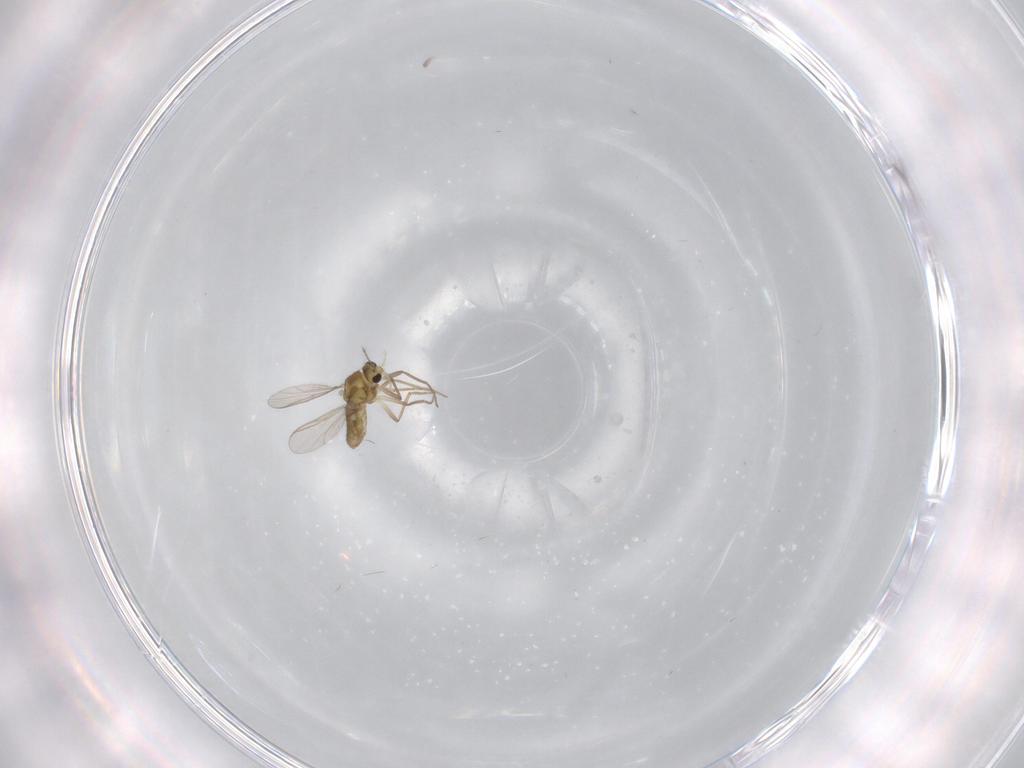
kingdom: Animalia
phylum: Arthropoda
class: Insecta
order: Diptera
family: Cecidomyiidae
